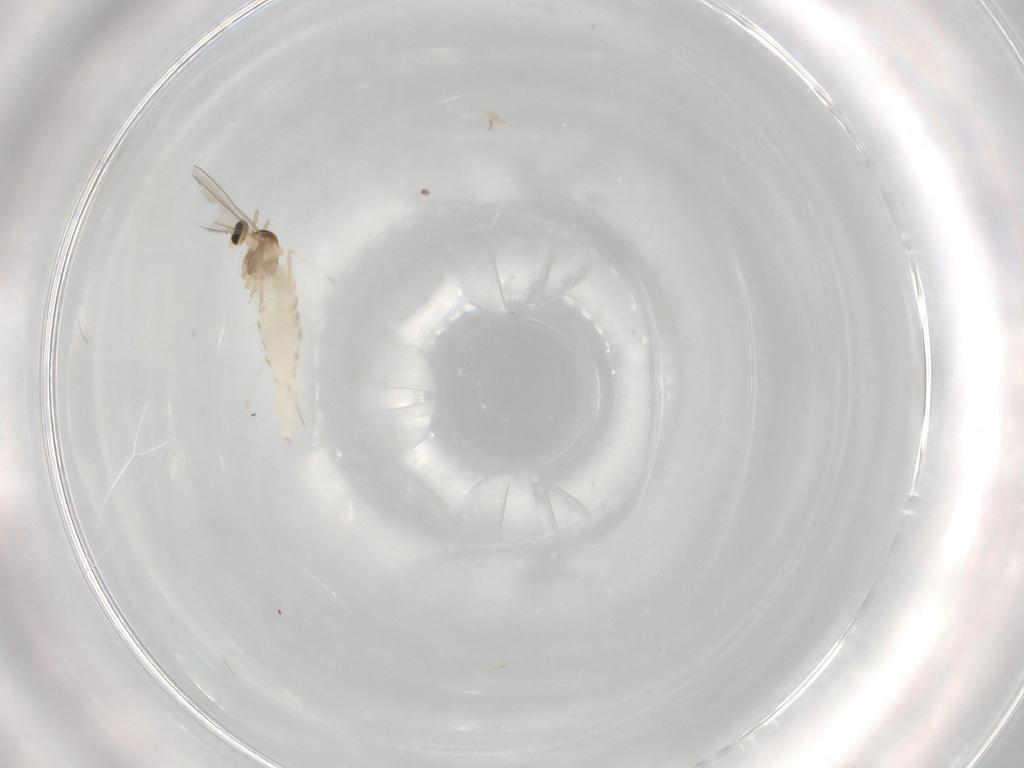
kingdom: Animalia
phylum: Arthropoda
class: Insecta
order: Diptera
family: Cecidomyiidae
